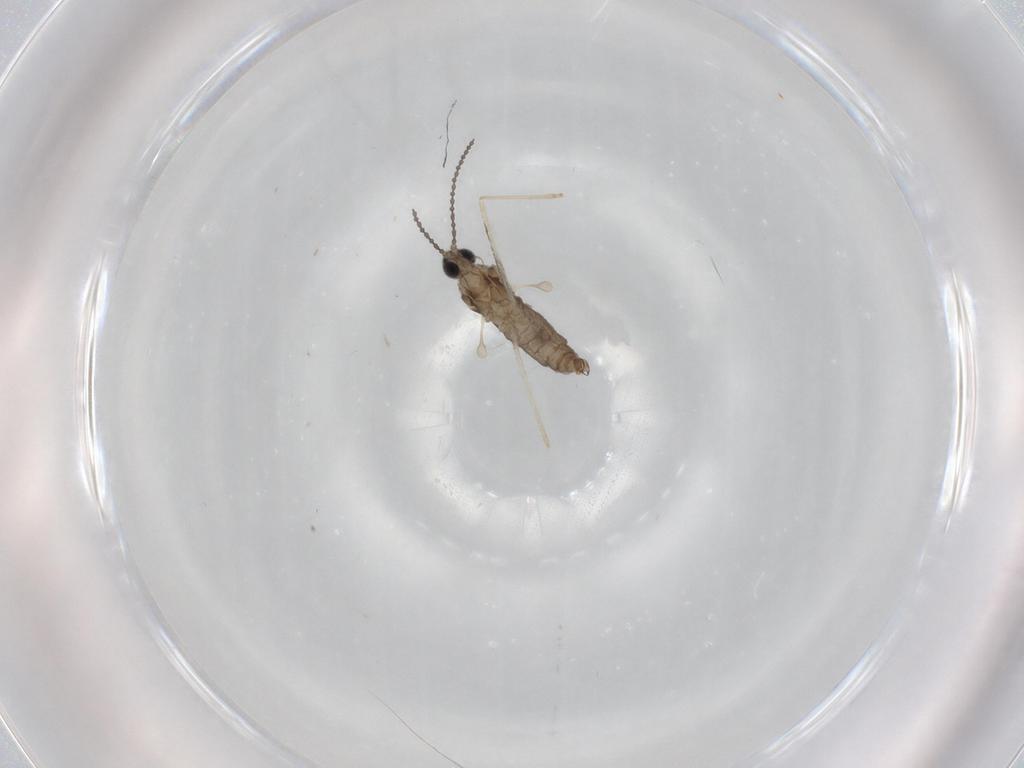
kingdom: Animalia
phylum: Arthropoda
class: Insecta
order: Diptera
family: Cecidomyiidae
